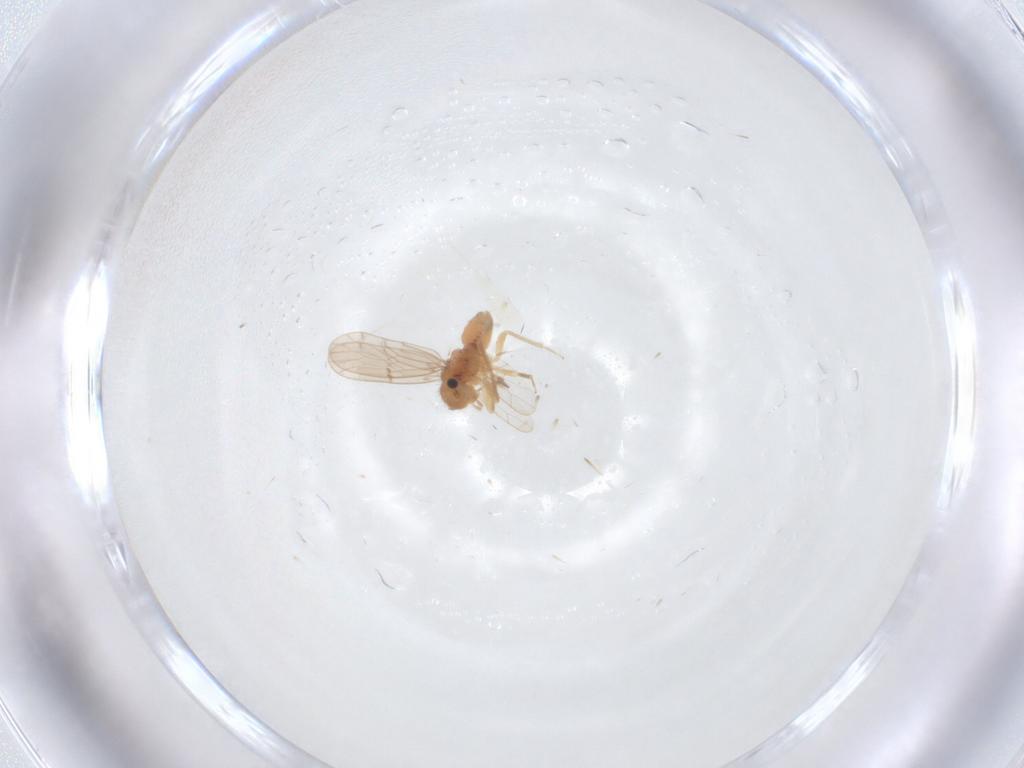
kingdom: Animalia
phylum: Arthropoda
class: Insecta
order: Psocodea
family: Ectopsocidae
